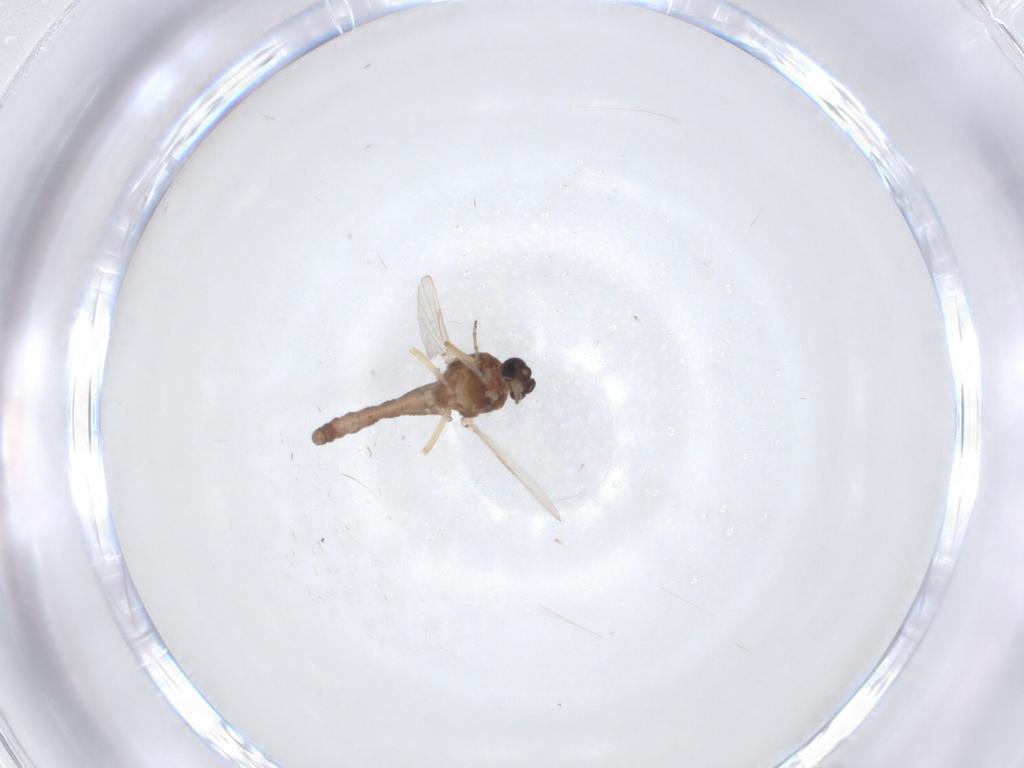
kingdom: Animalia
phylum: Arthropoda
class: Insecta
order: Diptera
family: Ceratopogonidae
